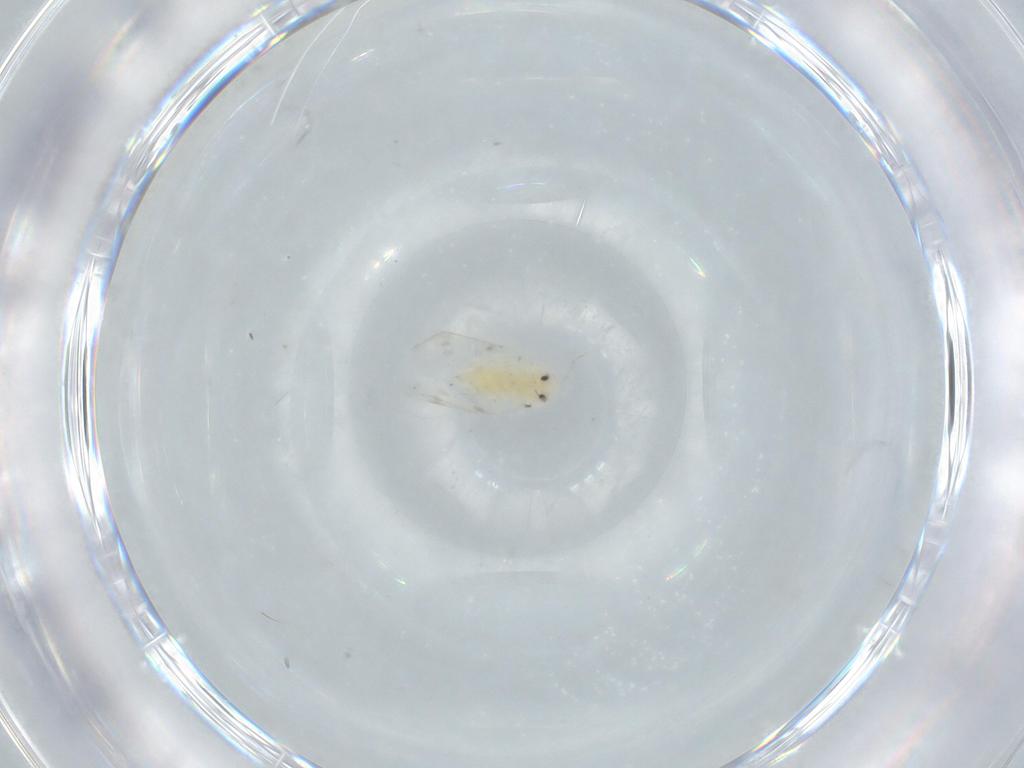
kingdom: Animalia
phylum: Arthropoda
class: Insecta
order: Hemiptera
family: Aleyrodidae
